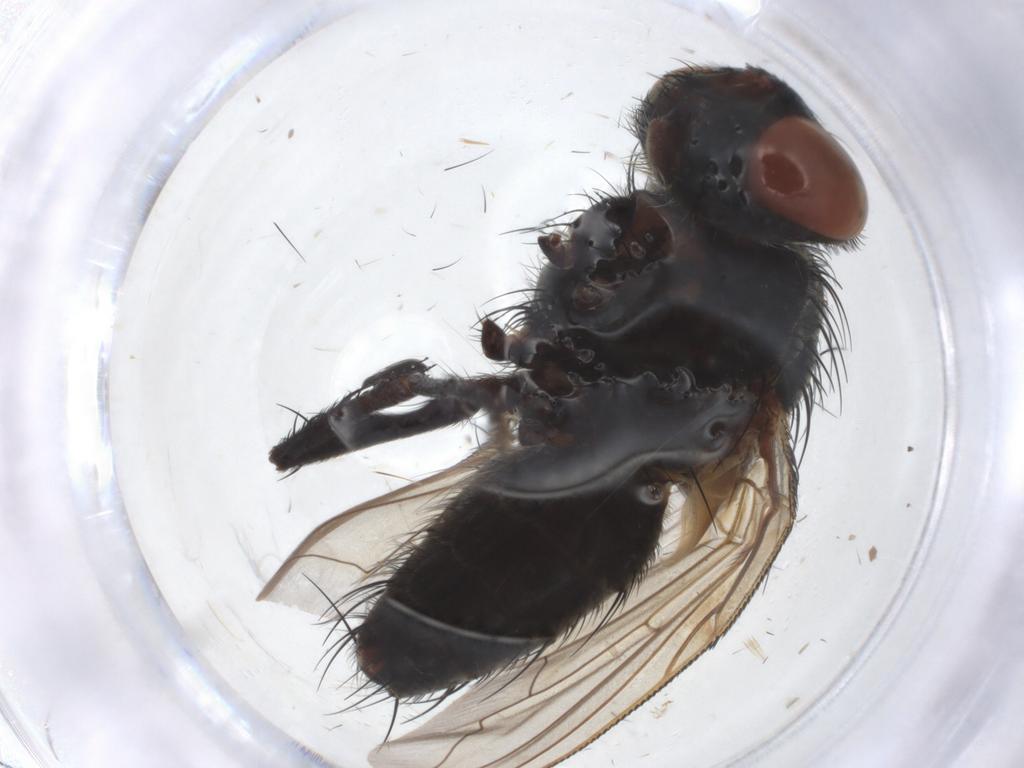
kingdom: Animalia
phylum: Arthropoda
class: Insecta
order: Diptera
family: Sarcophagidae
